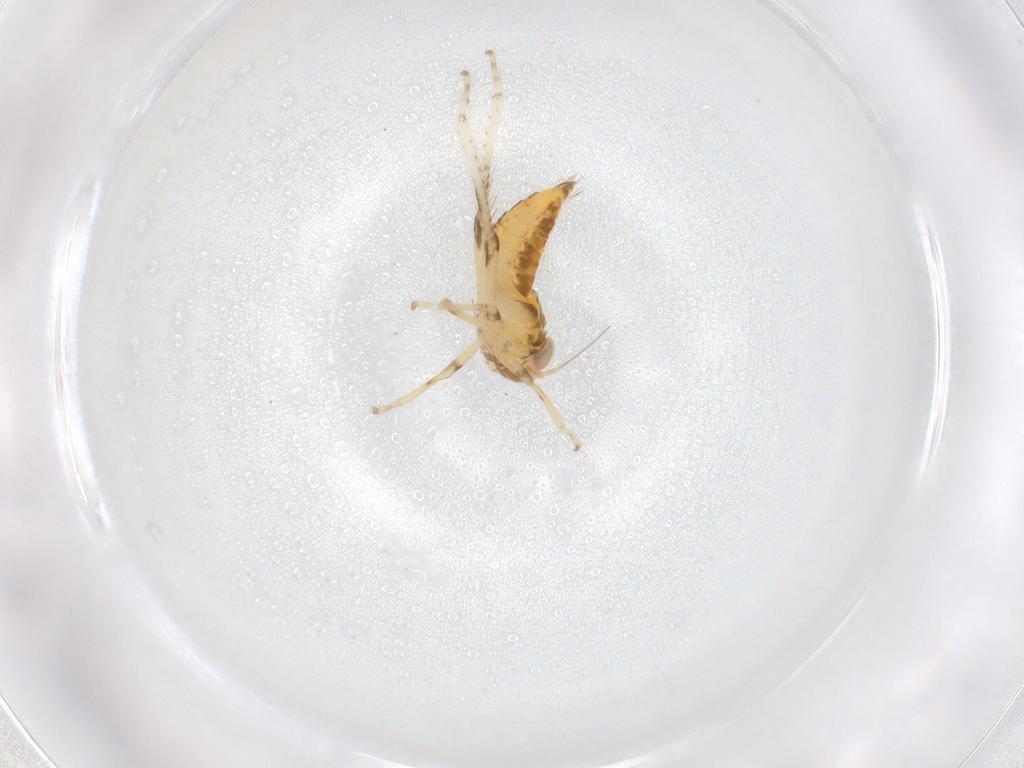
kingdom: Animalia
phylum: Arthropoda
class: Insecta
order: Hemiptera
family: Cicadellidae
